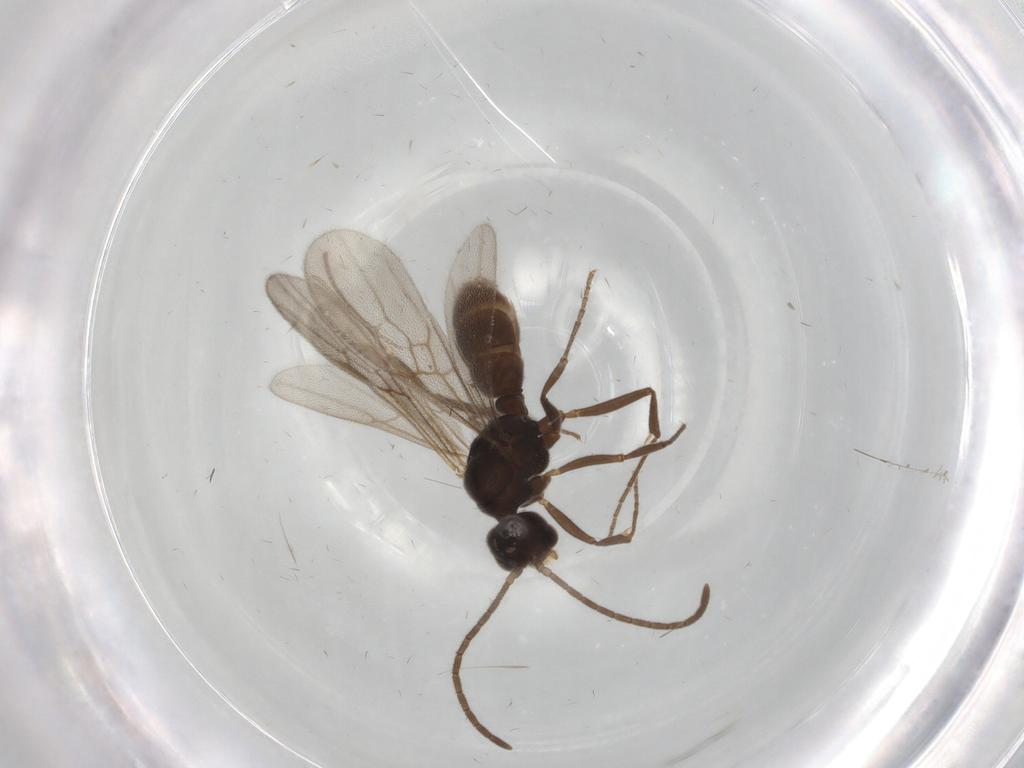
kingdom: Animalia
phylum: Arthropoda
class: Insecta
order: Hymenoptera
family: Formicidae
